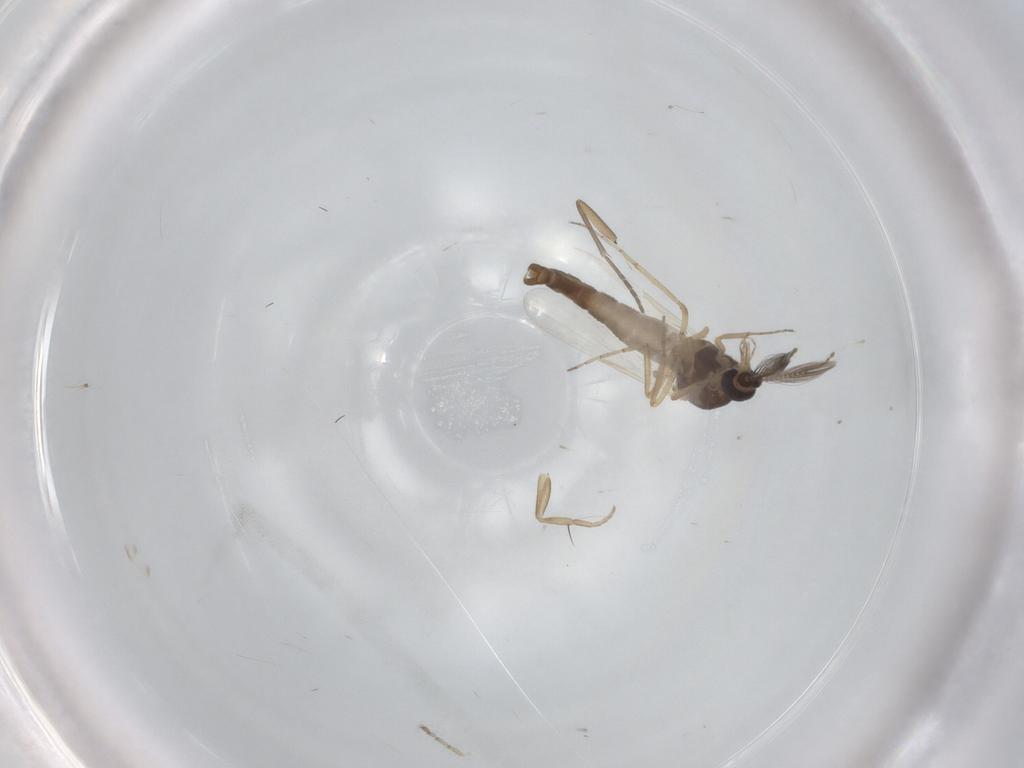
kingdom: Animalia
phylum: Arthropoda
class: Insecta
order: Diptera
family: Ceratopogonidae
